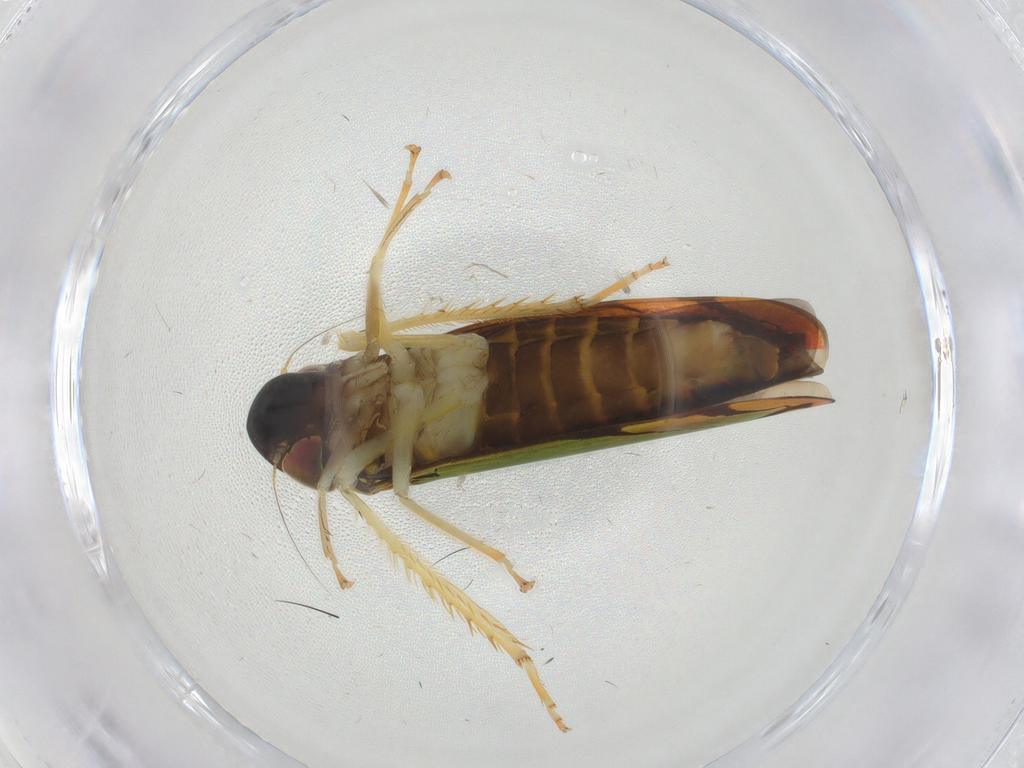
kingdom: Animalia
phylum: Arthropoda
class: Insecta
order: Hemiptera
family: Cicadellidae
